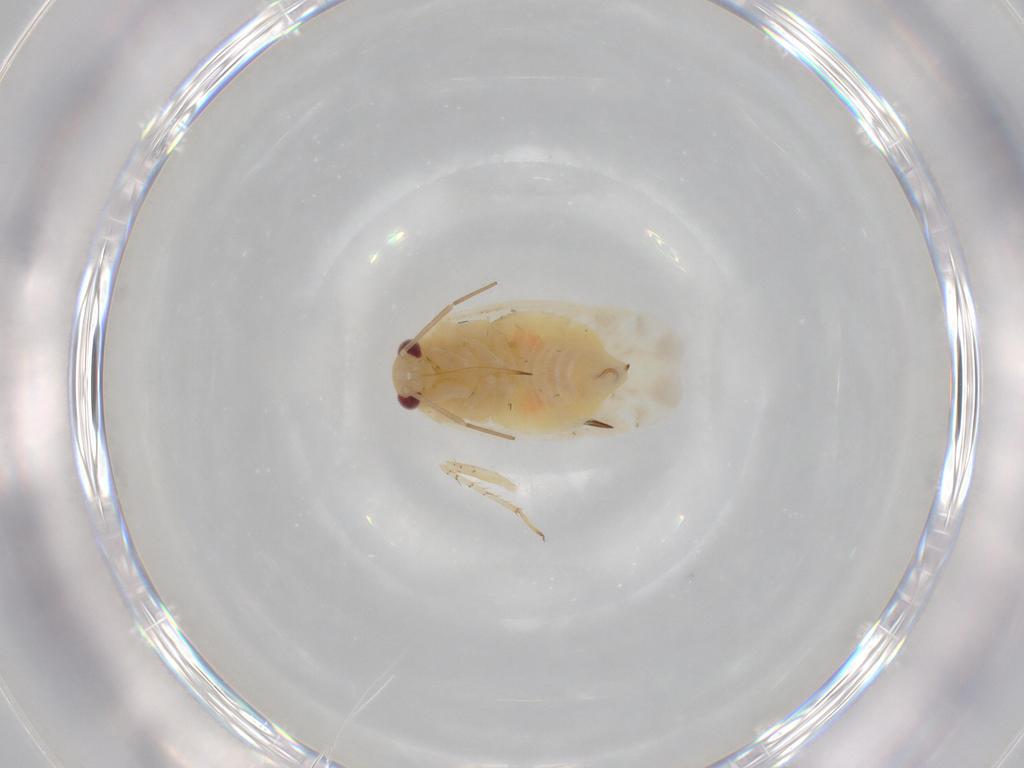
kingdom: Animalia
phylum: Arthropoda
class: Insecta
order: Hemiptera
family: Miridae
